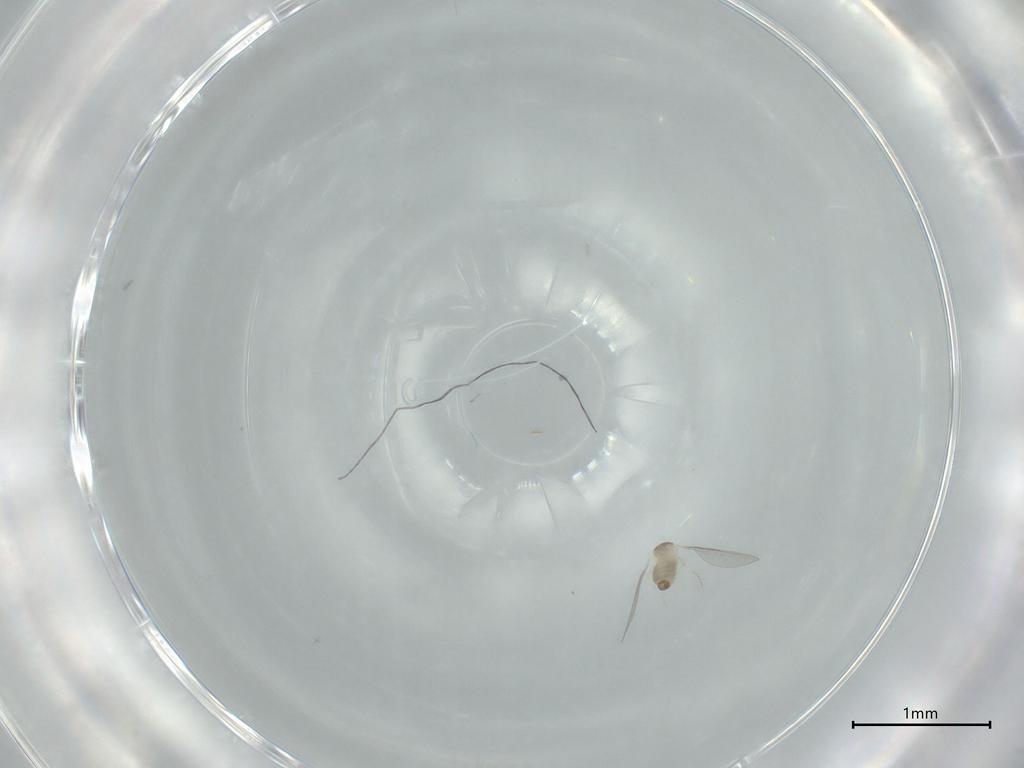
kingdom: Animalia
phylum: Arthropoda
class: Insecta
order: Diptera
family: Cecidomyiidae
